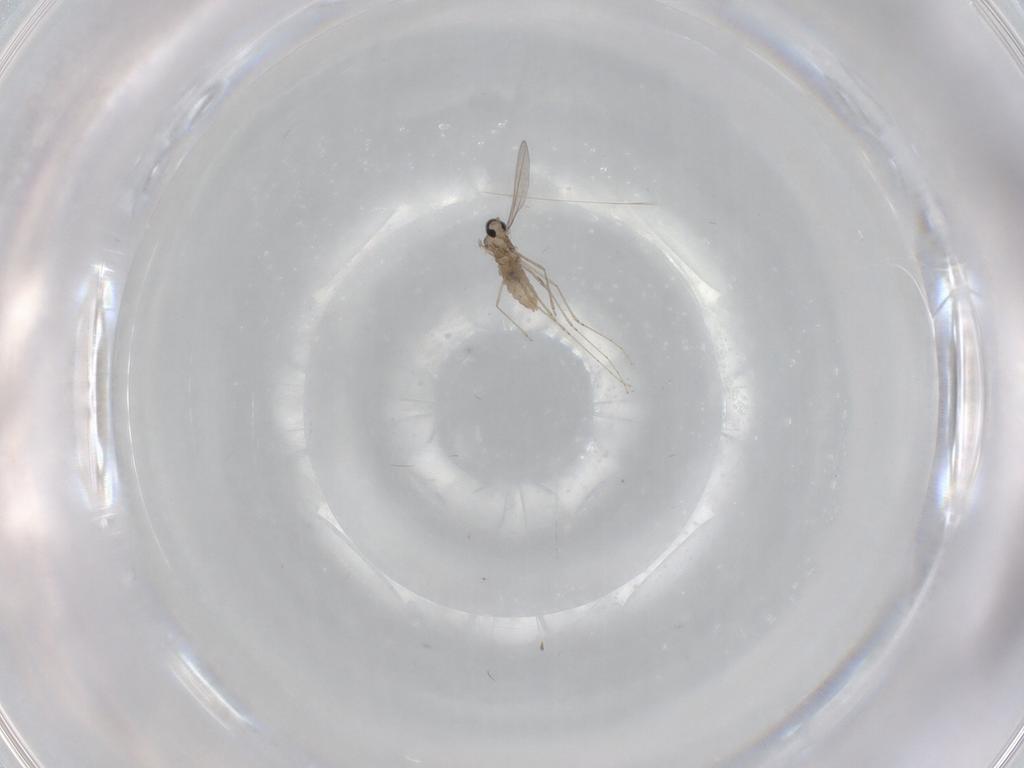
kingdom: Animalia
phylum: Arthropoda
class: Insecta
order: Diptera
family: Cecidomyiidae
